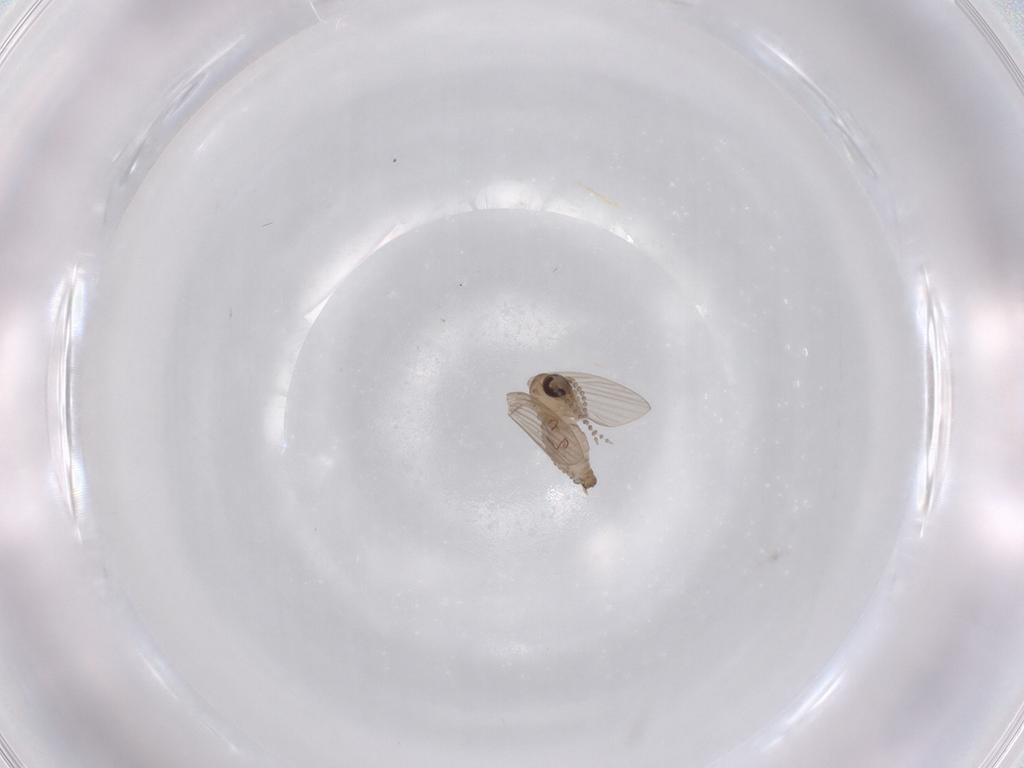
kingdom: Animalia
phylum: Arthropoda
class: Insecta
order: Diptera
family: Psychodidae
